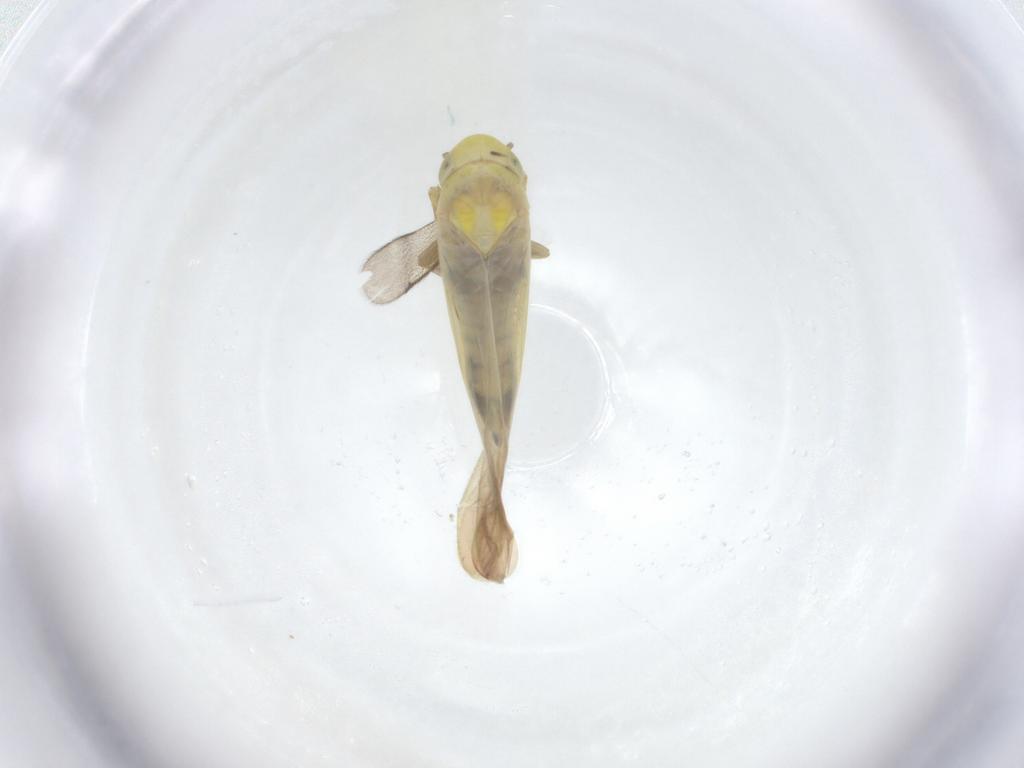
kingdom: Animalia
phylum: Arthropoda
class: Insecta
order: Hemiptera
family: Cicadellidae
